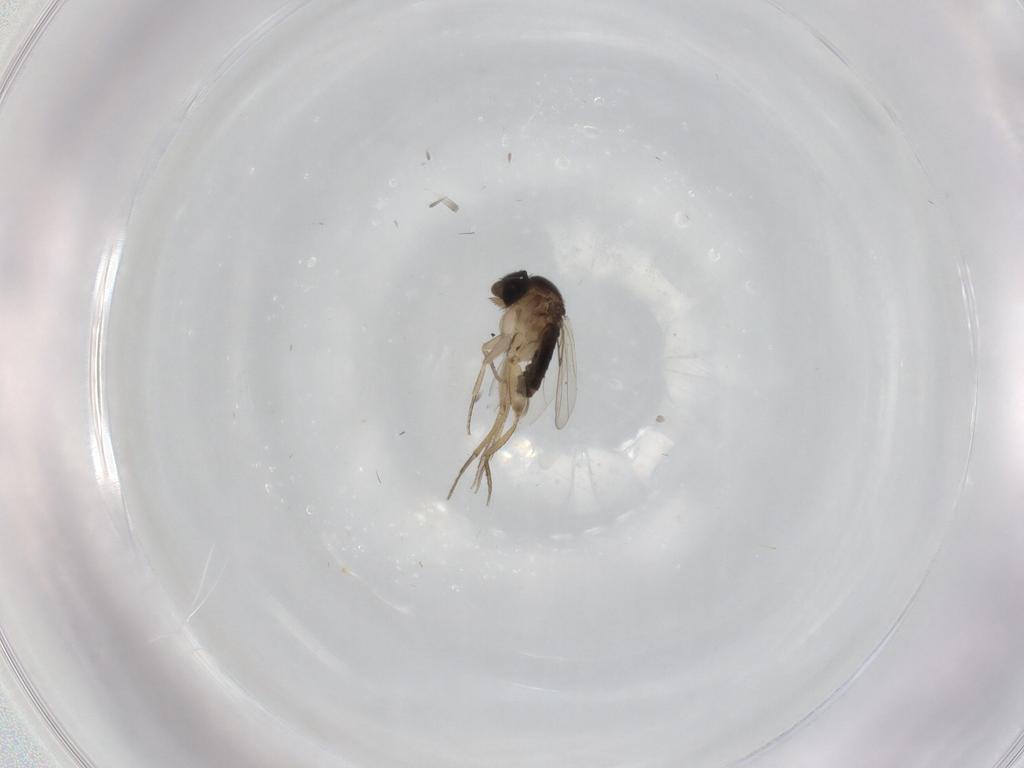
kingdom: Animalia
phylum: Arthropoda
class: Insecta
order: Diptera
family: Phoridae
